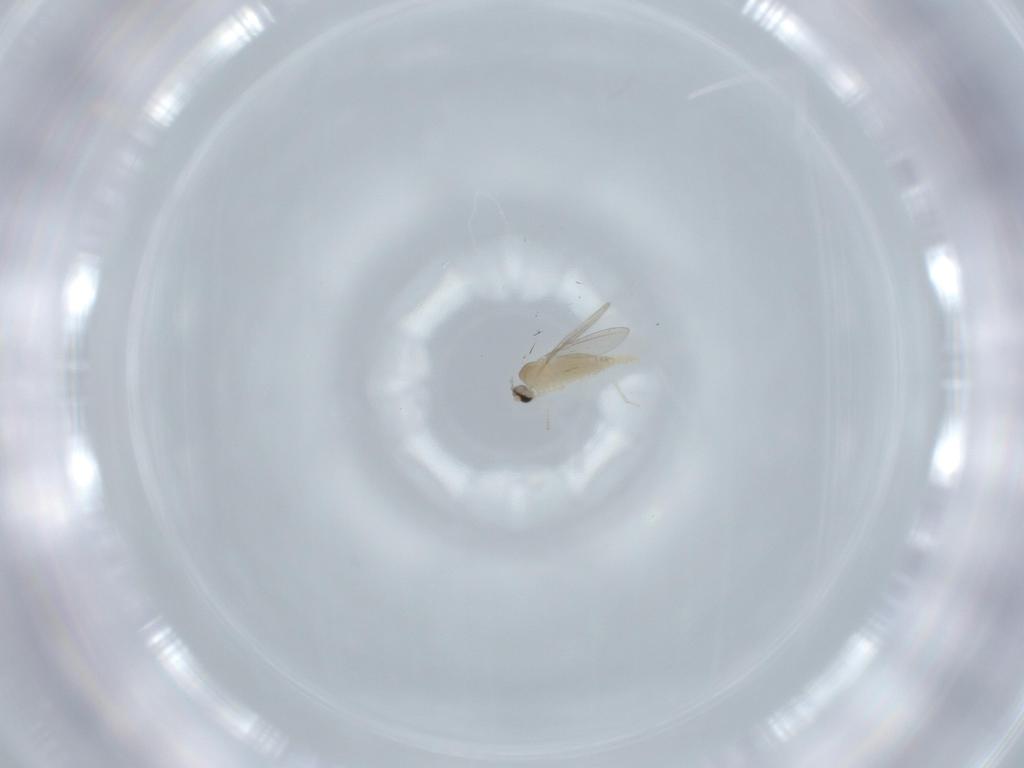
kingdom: Animalia
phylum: Arthropoda
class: Insecta
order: Diptera
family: Cecidomyiidae
